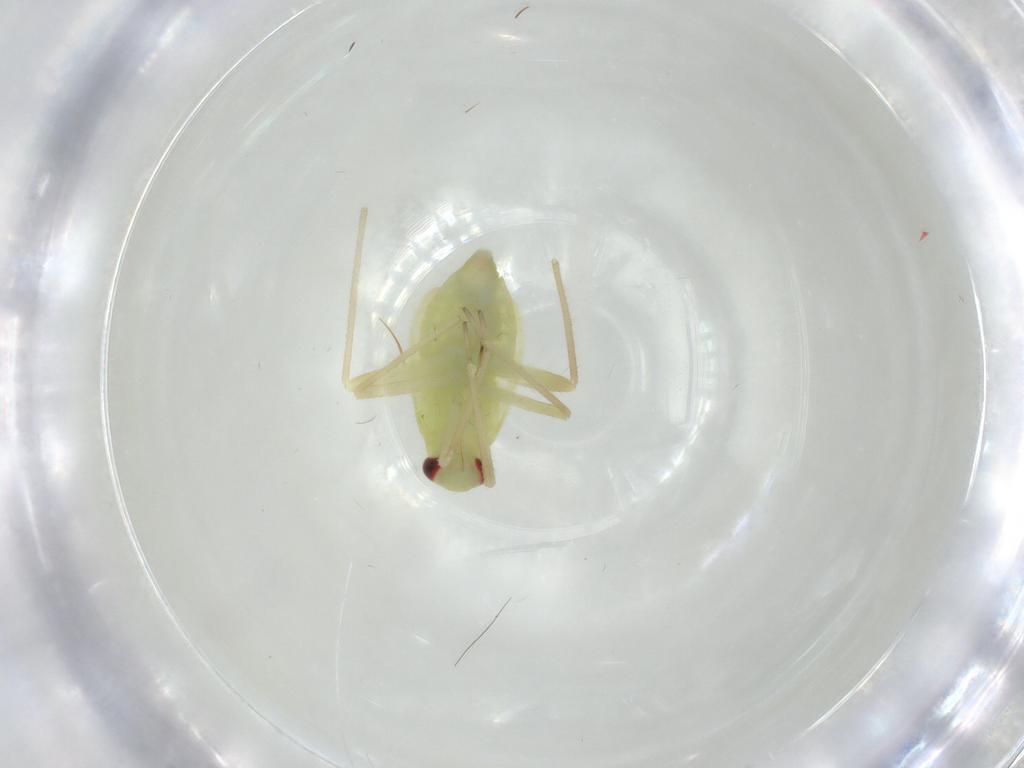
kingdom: Animalia
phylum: Arthropoda
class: Insecta
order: Hemiptera
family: Miridae
